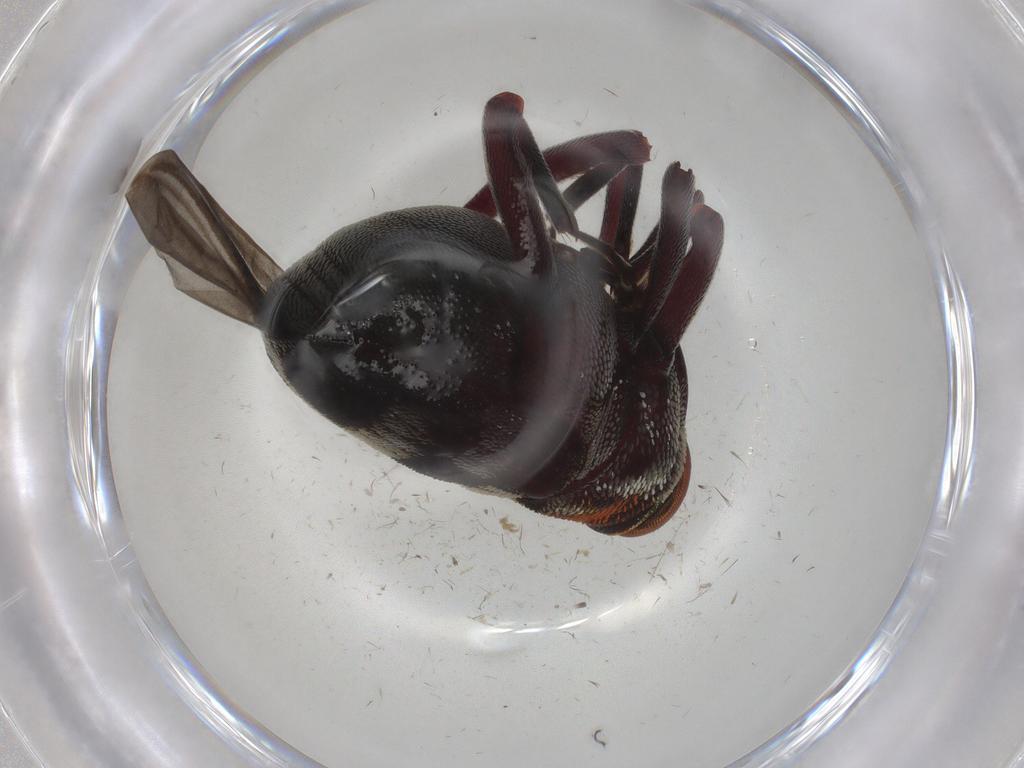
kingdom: Animalia
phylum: Arthropoda
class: Insecta
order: Coleoptera
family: Curculionidae
